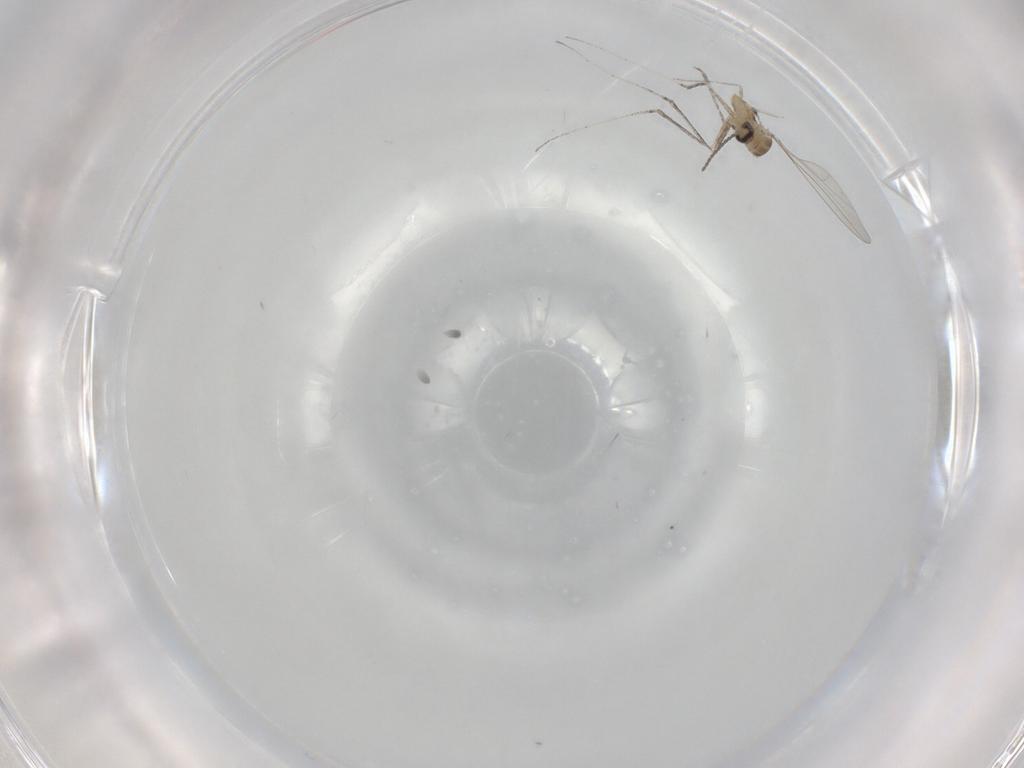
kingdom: Animalia
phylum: Arthropoda
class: Insecta
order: Diptera
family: Cecidomyiidae
